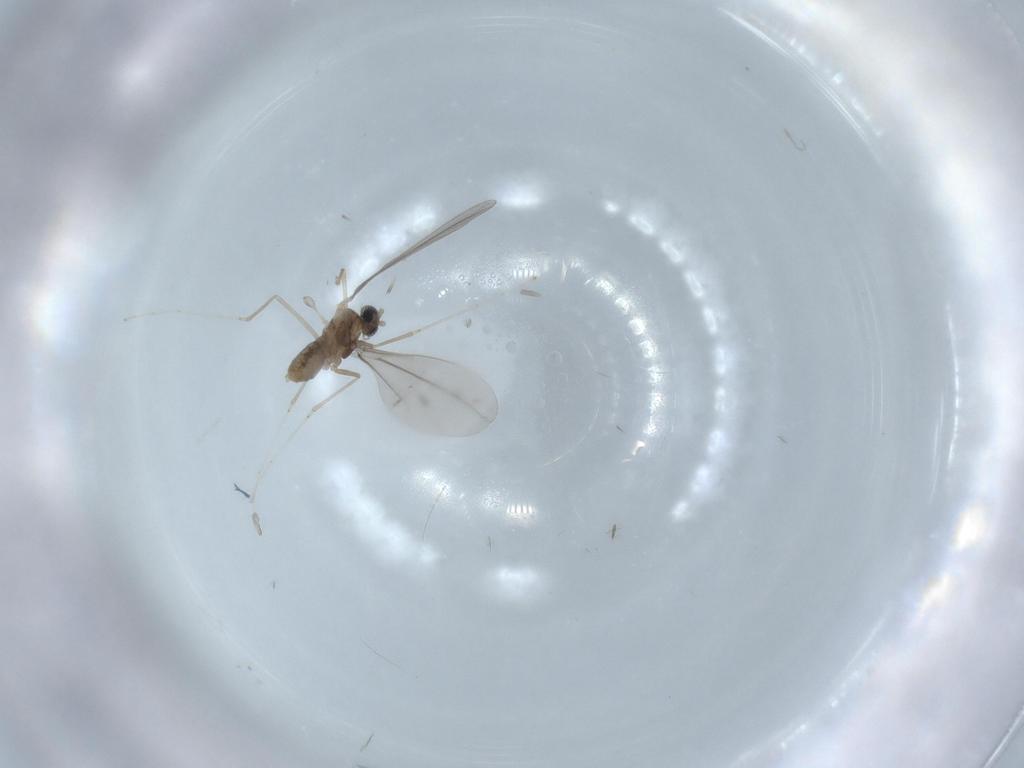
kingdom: Animalia
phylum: Arthropoda
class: Insecta
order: Diptera
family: Cecidomyiidae
